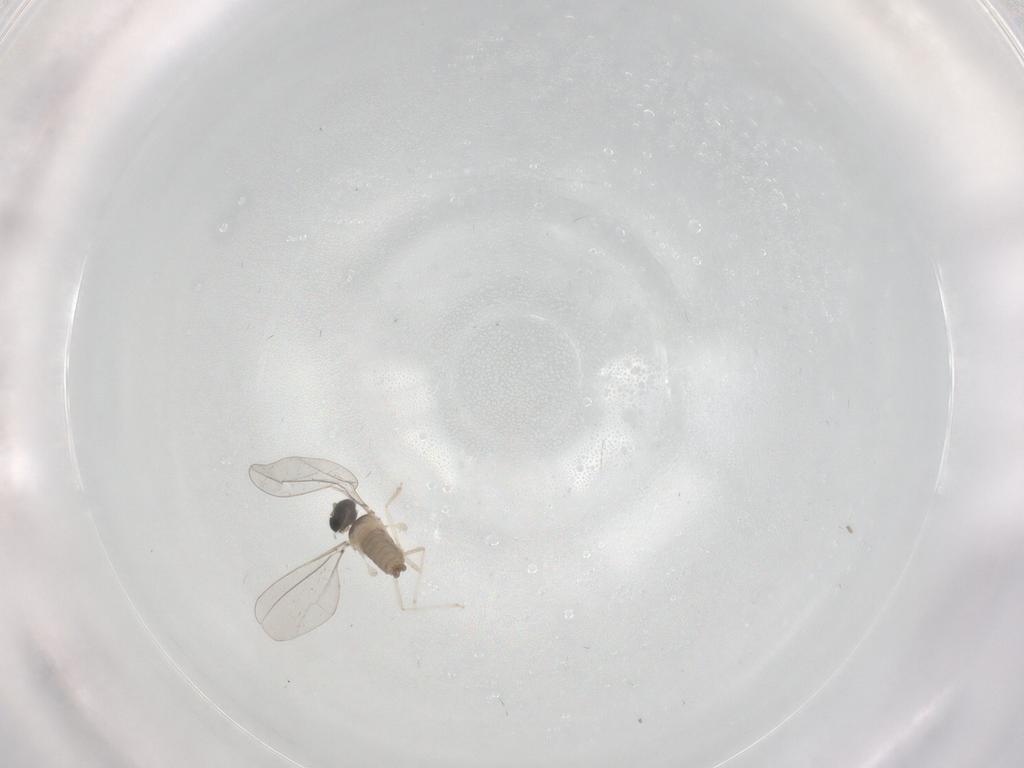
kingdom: Animalia
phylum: Arthropoda
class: Insecta
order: Diptera
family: Cecidomyiidae
